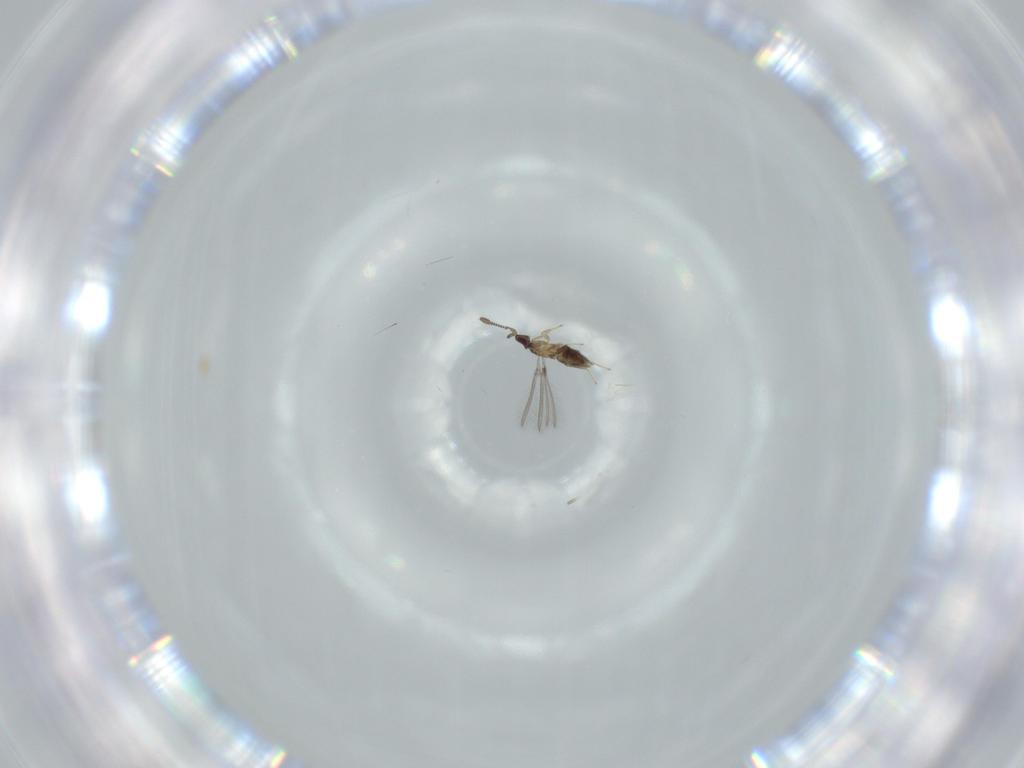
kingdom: Animalia
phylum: Arthropoda
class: Insecta
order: Hymenoptera
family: Mymaridae
